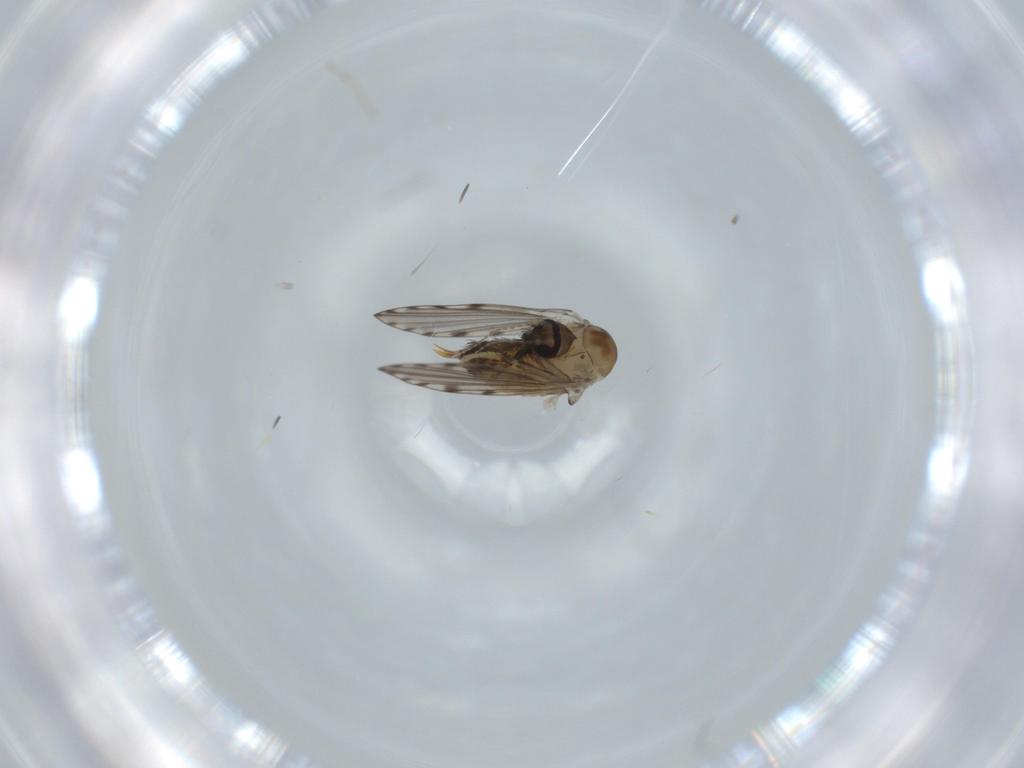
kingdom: Animalia
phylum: Arthropoda
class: Insecta
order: Diptera
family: Psychodidae
